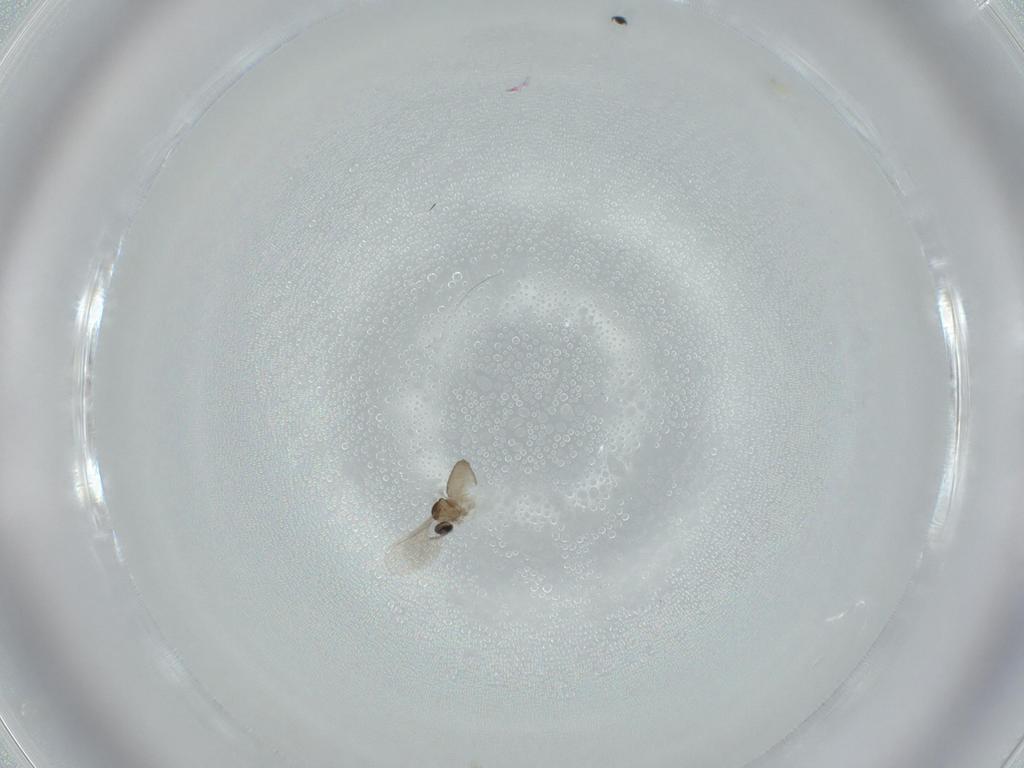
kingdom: Animalia
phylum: Arthropoda
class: Insecta
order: Diptera
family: Cecidomyiidae
